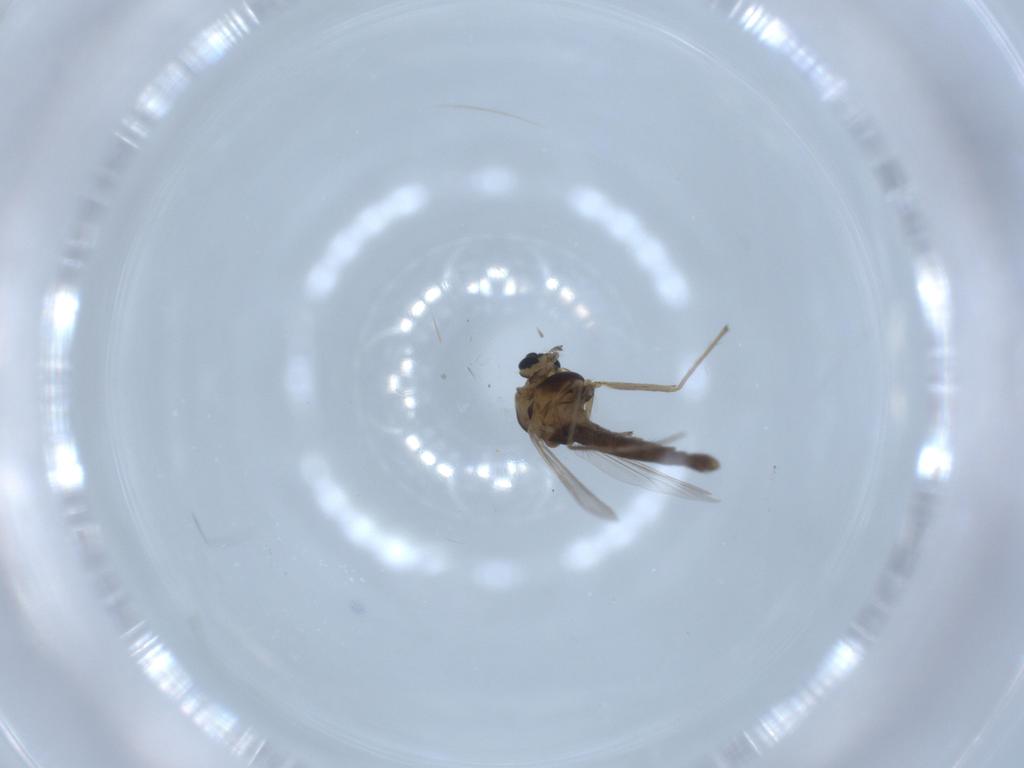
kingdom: Animalia
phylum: Arthropoda
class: Insecta
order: Diptera
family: Chironomidae
